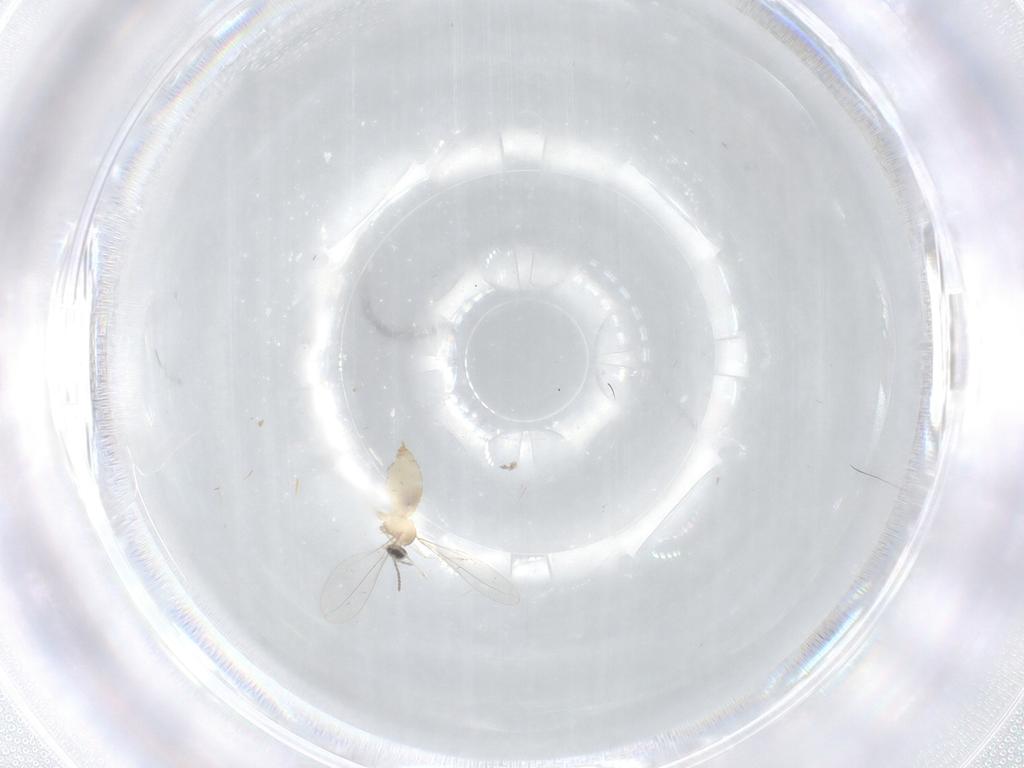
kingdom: Animalia
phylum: Arthropoda
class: Insecta
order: Diptera
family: Cecidomyiidae
